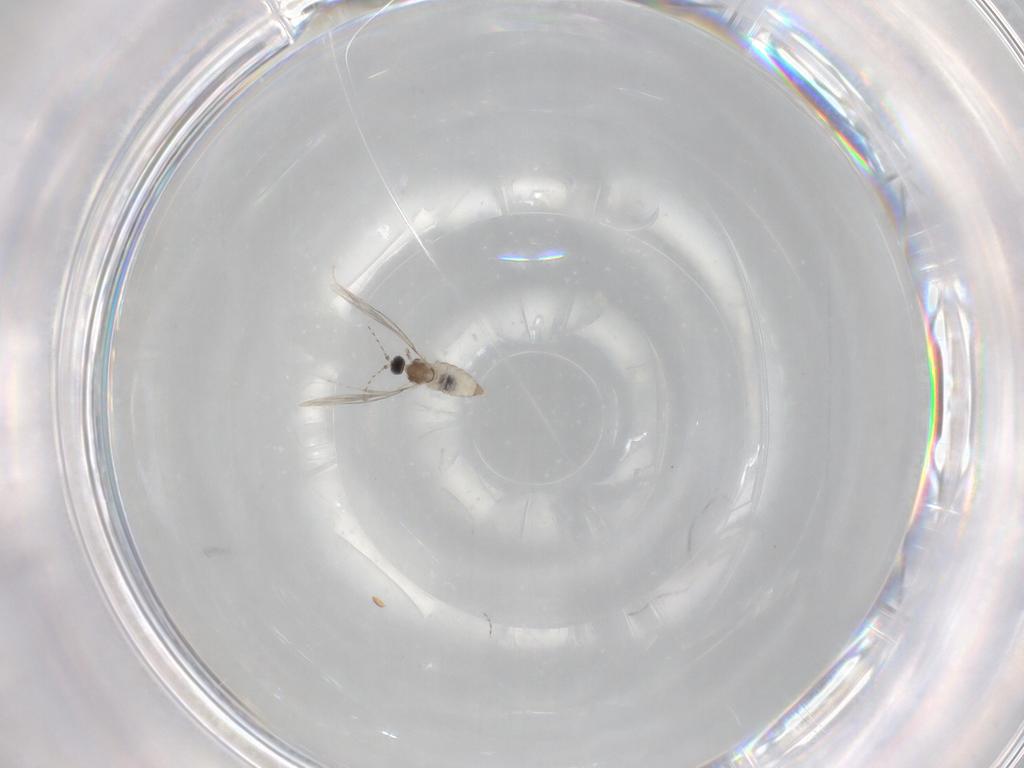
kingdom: Animalia
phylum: Arthropoda
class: Insecta
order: Diptera
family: Cecidomyiidae
